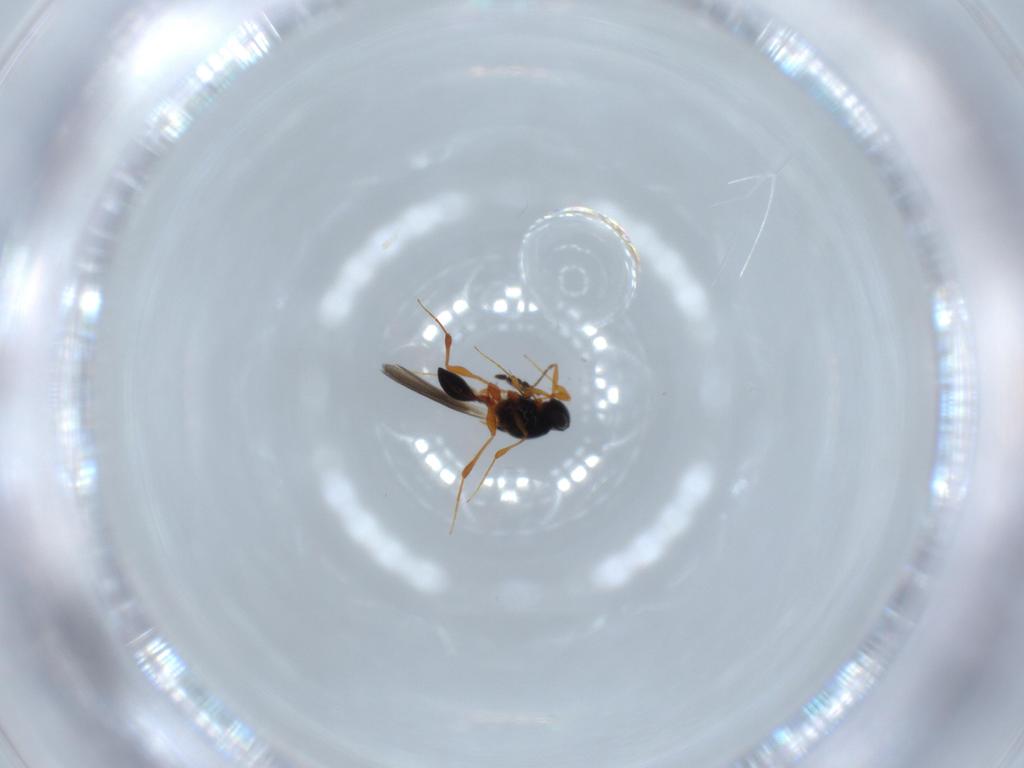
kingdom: Animalia
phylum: Arthropoda
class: Insecta
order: Hymenoptera
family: Platygastridae
